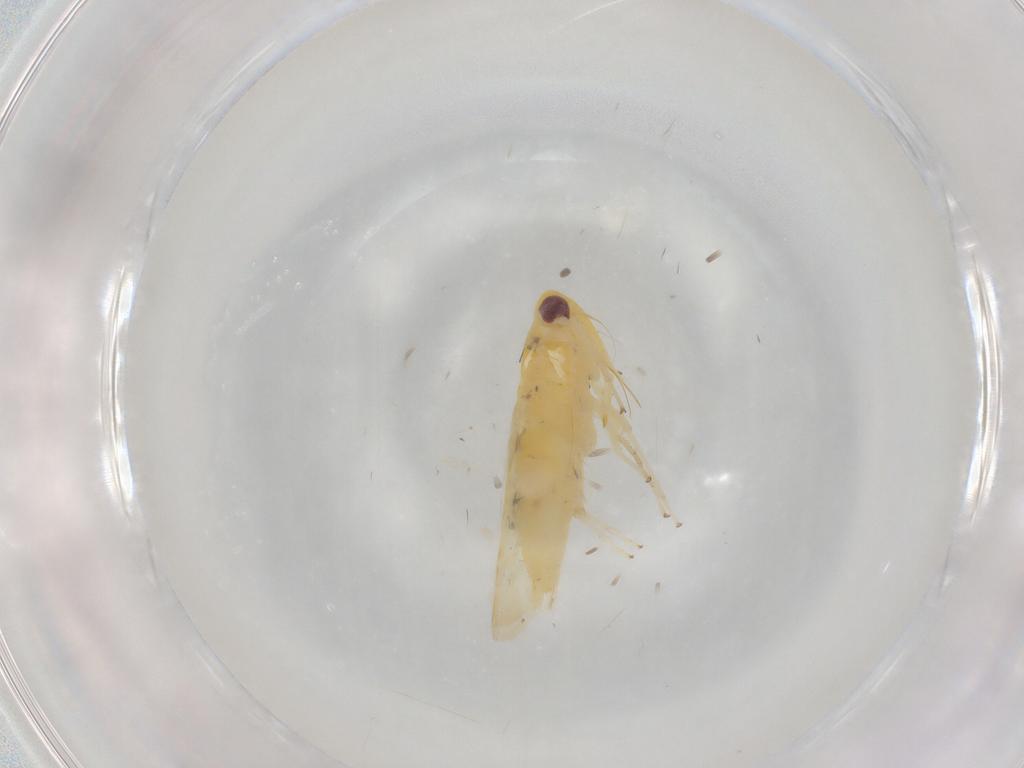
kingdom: Animalia
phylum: Arthropoda
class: Insecta
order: Hemiptera
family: Cicadellidae
